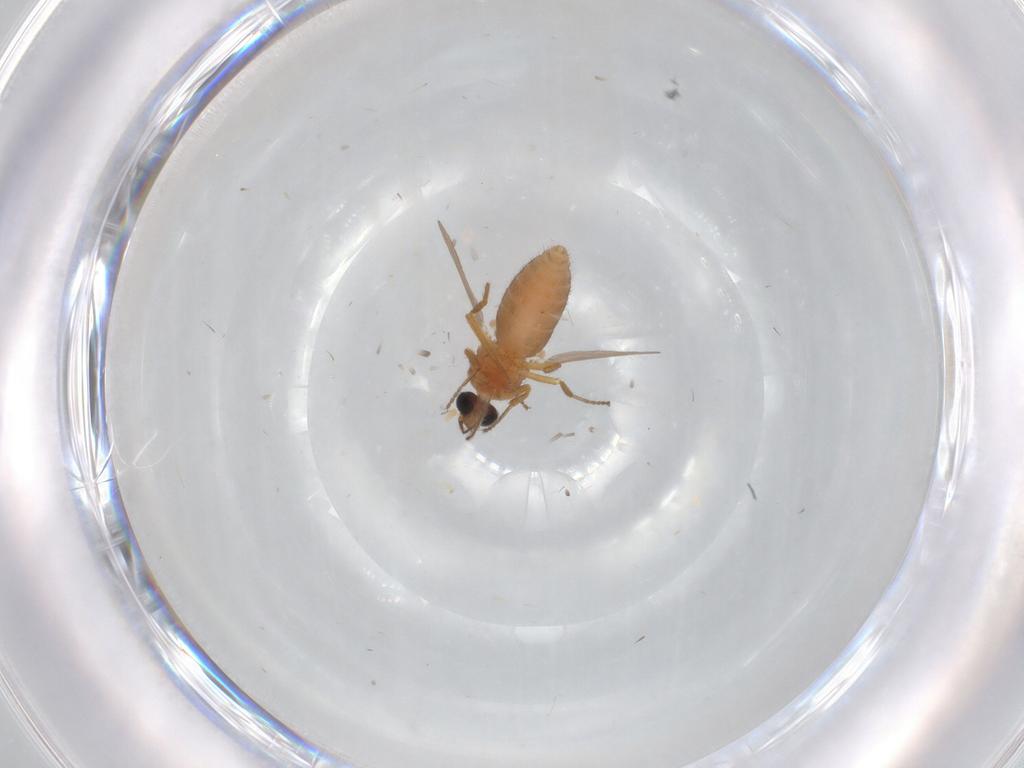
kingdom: Animalia
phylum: Arthropoda
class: Insecta
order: Diptera
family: Chironomidae
